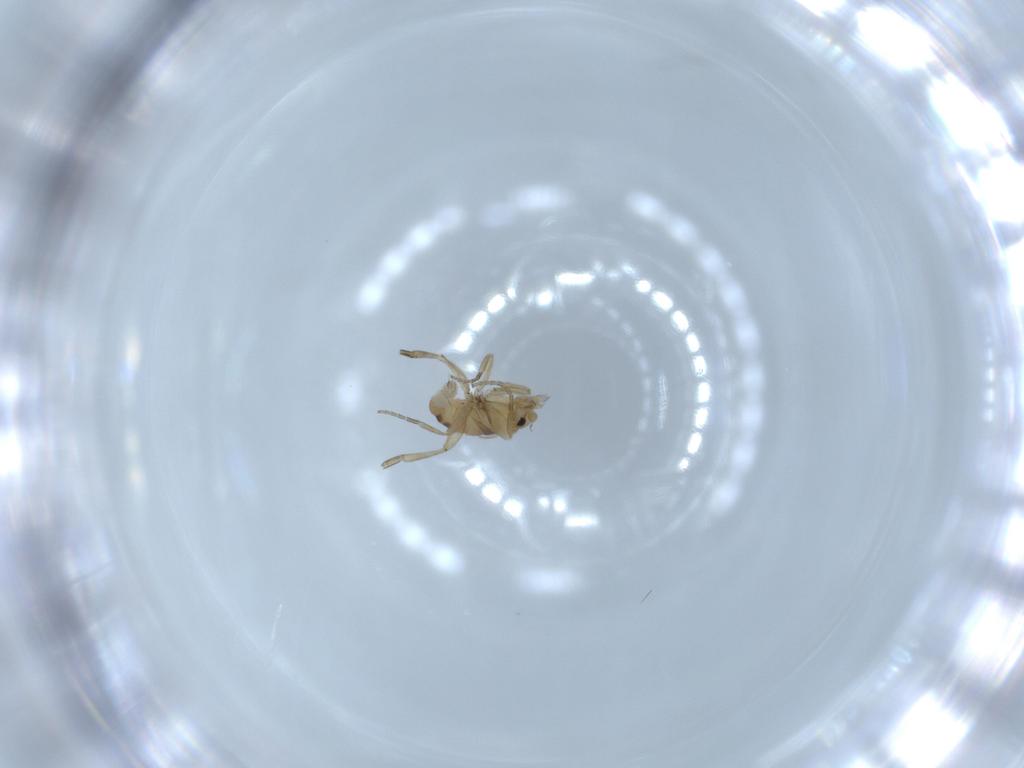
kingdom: Animalia
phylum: Arthropoda
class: Insecta
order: Diptera
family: Phoridae
